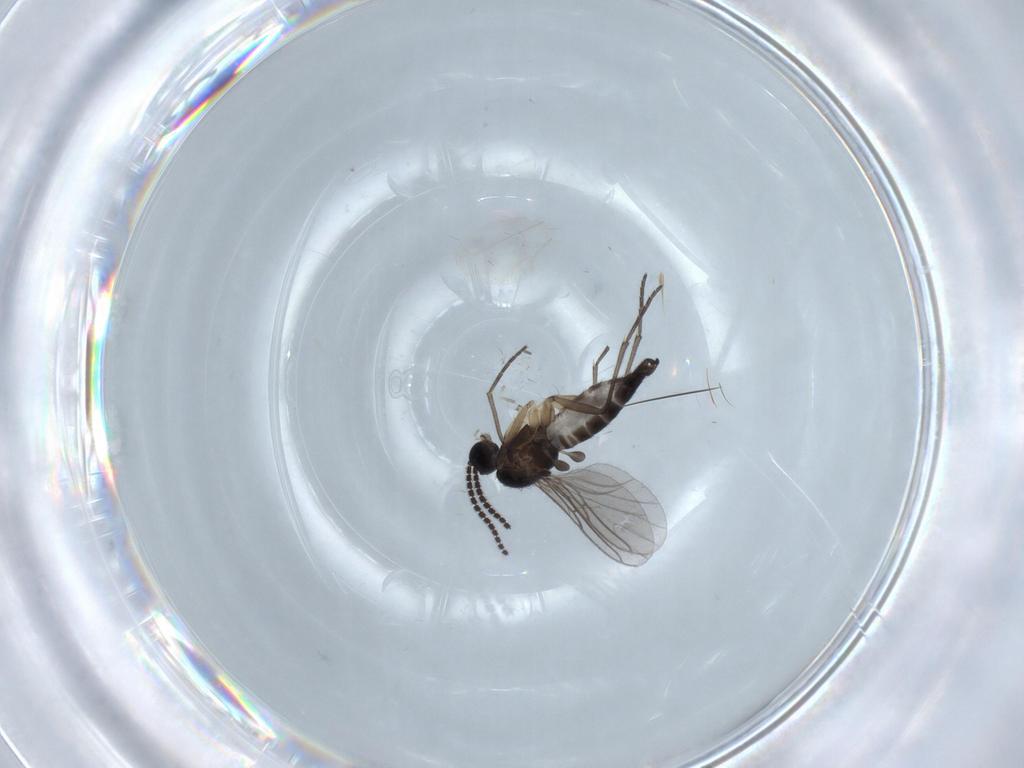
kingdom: Animalia
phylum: Arthropoda
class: Insecta
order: Diptera
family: Sciaridae
